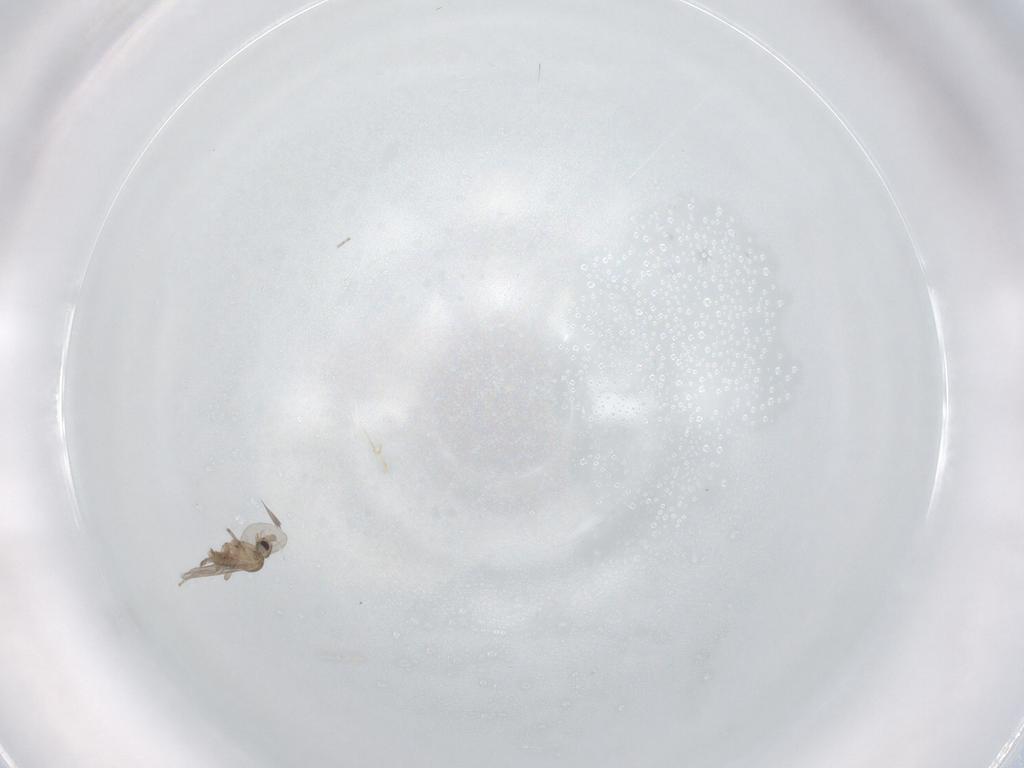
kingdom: Animalia
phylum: Arthropoda
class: Insecta
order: Diptera
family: Phoridae
